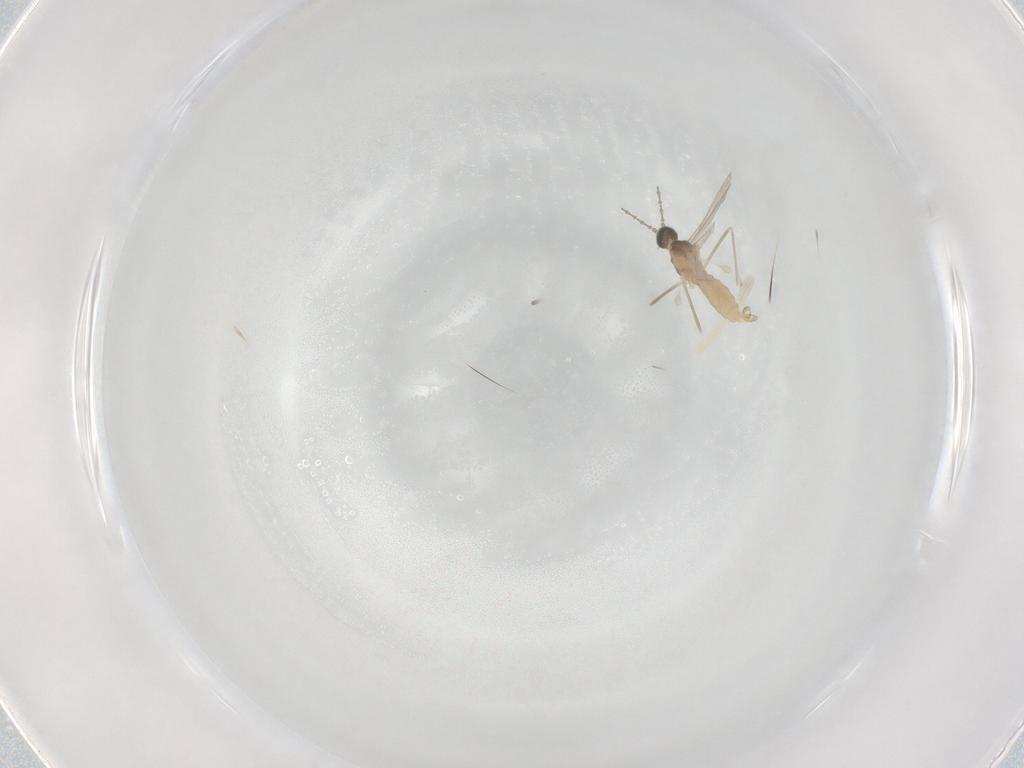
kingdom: Animalia
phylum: Arthropoda
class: Insecta
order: Diptera
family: Cecidomyiidae
